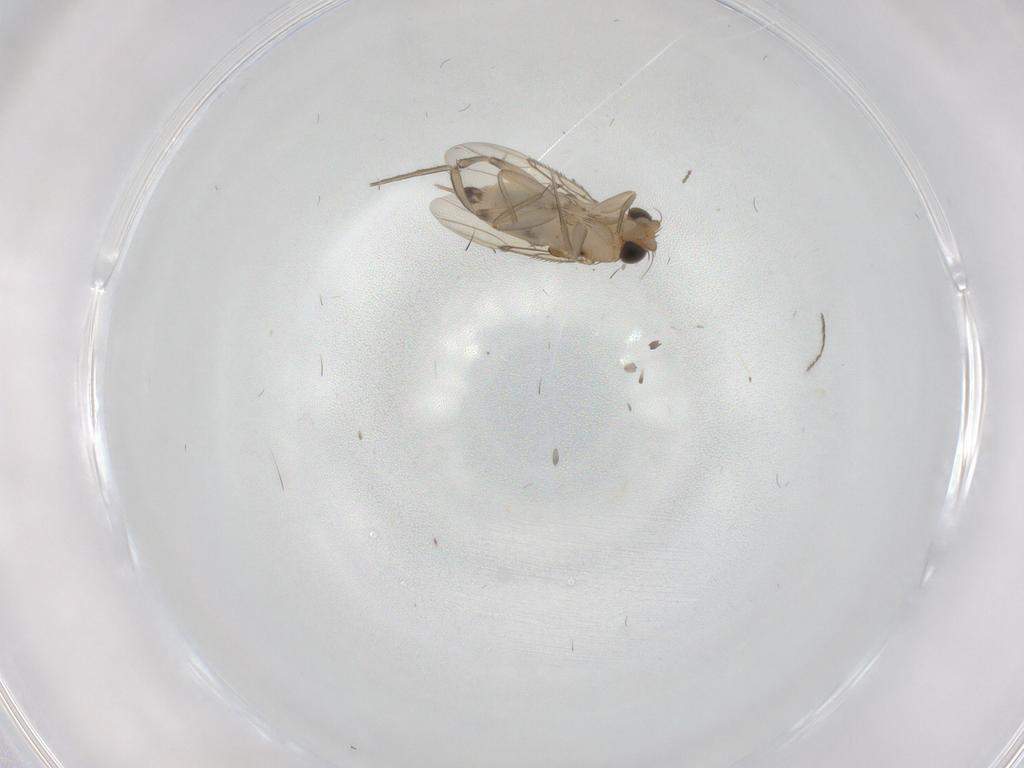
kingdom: Animalia
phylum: Arthropoda
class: Insecta
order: Diptera
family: Phoridae
